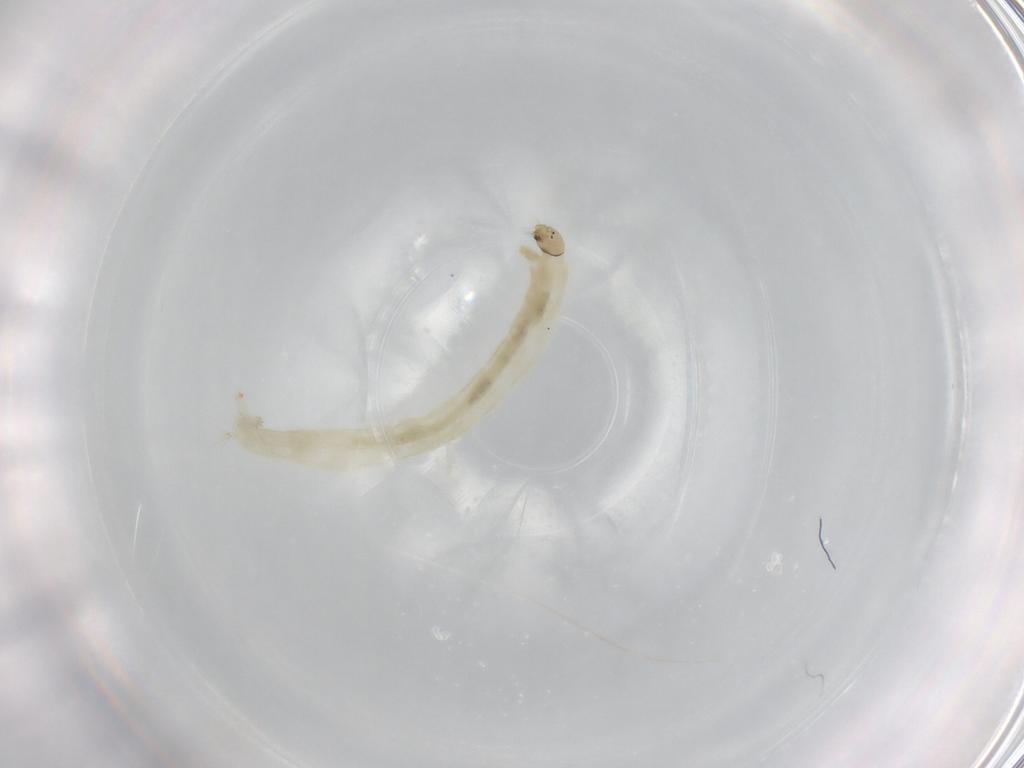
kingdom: Animalia
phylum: Arthropoda
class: Insecta
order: Diptera
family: Chironomidae
